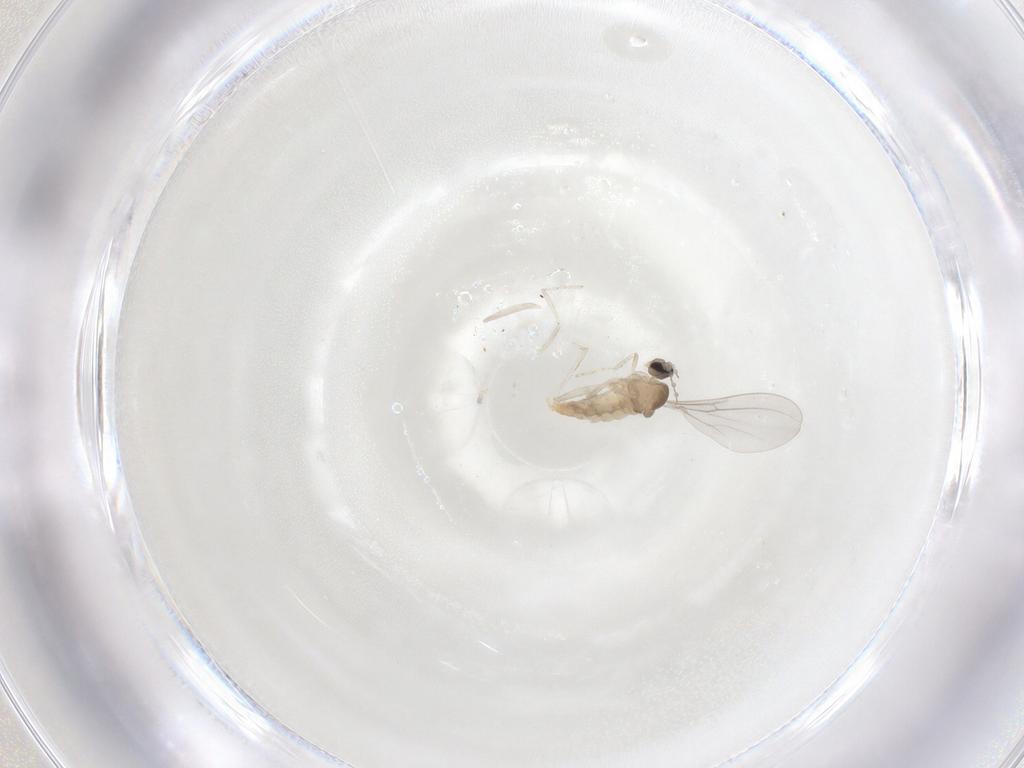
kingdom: Animalia
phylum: Arthropoda
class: Insecta
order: Diptera
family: Cecidomyiidae
